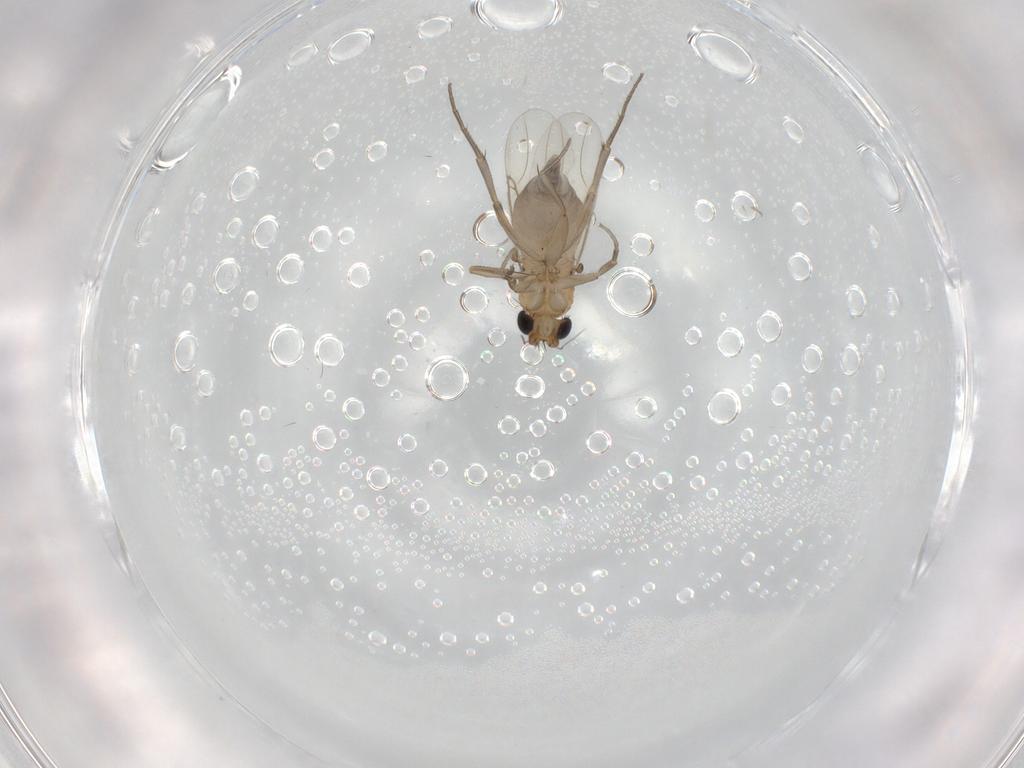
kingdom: Animalia
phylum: Arthropoda
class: Insecta
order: Diptera
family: Phoridae
